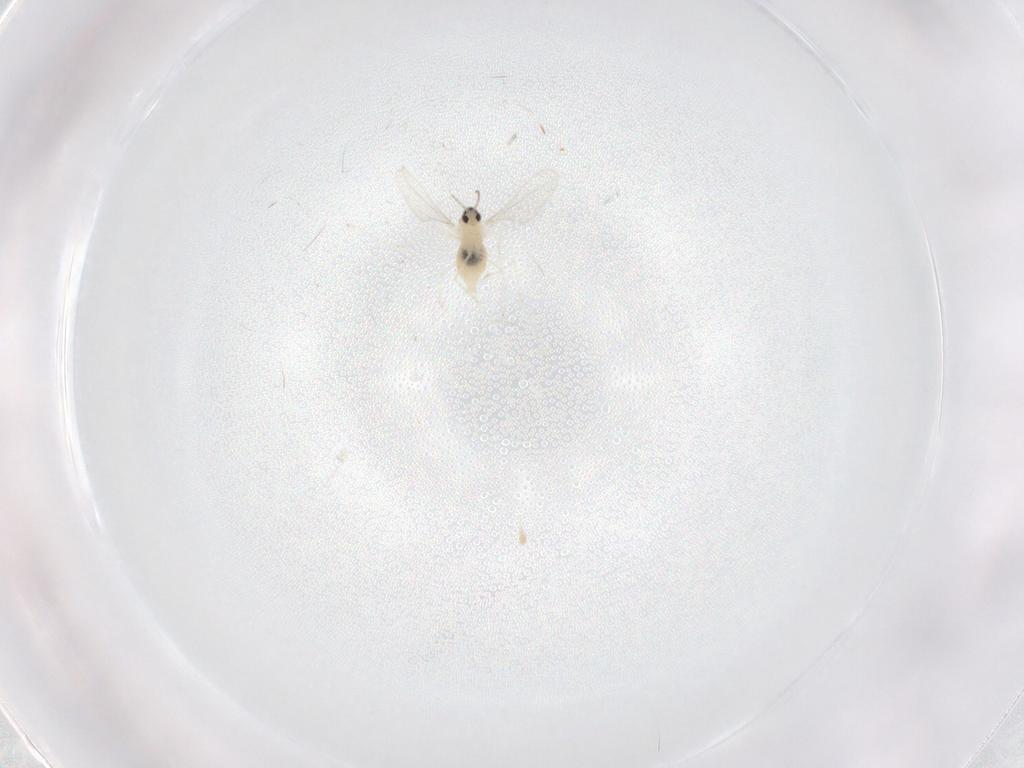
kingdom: Animalia
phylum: Arthropoda
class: Insecta
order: Diptera
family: Cecidomyiidae
